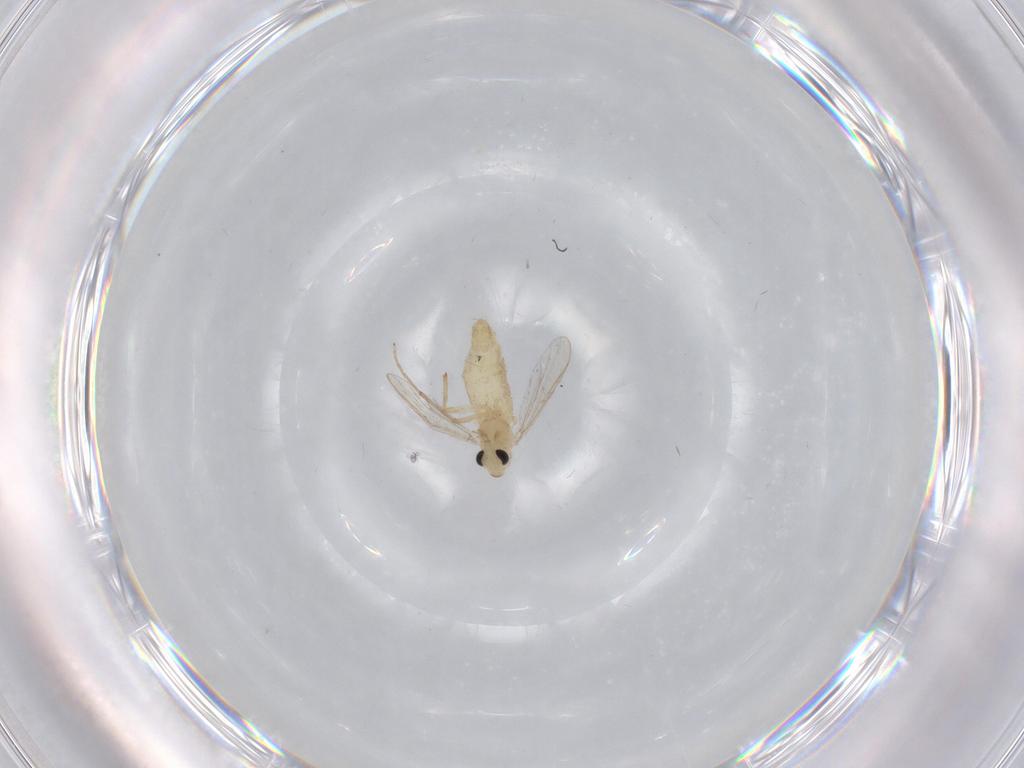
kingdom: Animalia
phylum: Arthropoda
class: Insecta
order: Diptera
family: Chironomidae
